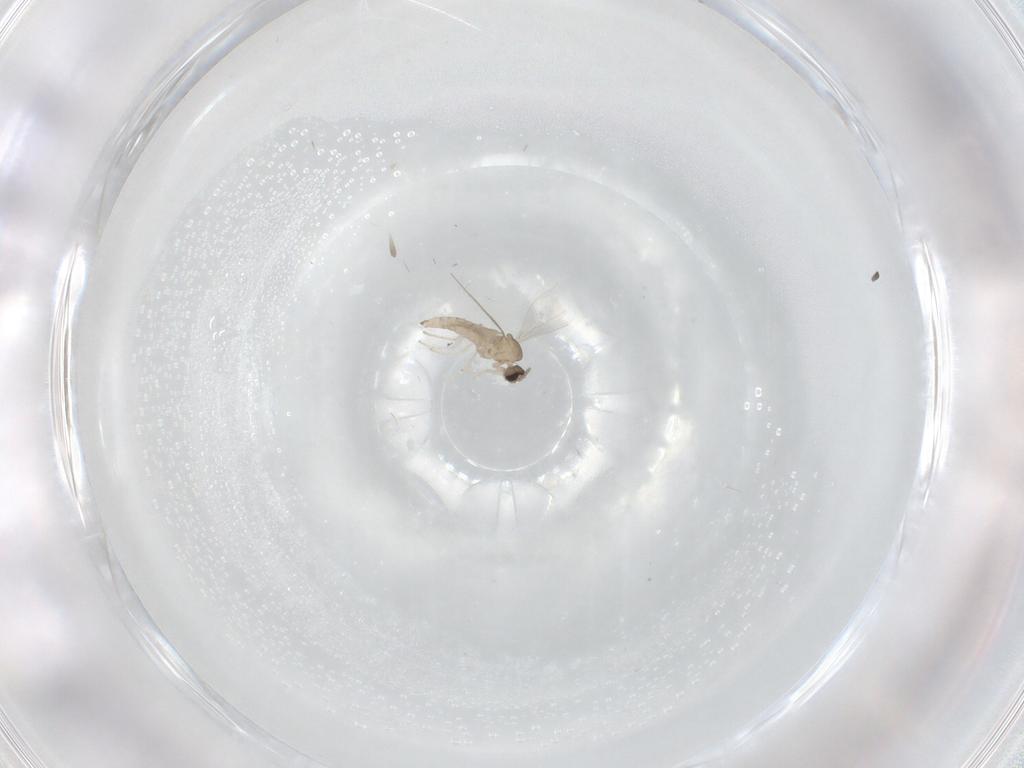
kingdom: Animalia
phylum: Arthropoda
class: Insecta
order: Diptera
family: Cecidomyiidae
